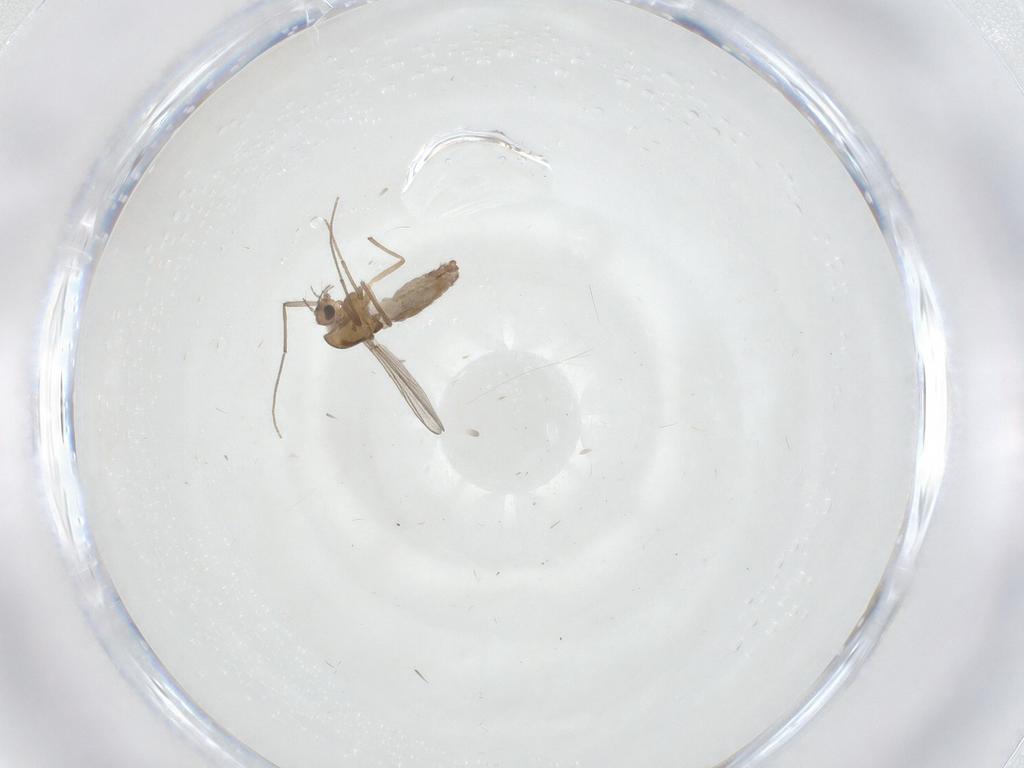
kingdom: Animalia
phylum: Arthropoda
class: Insecta
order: Diptera
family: Chironomidae
